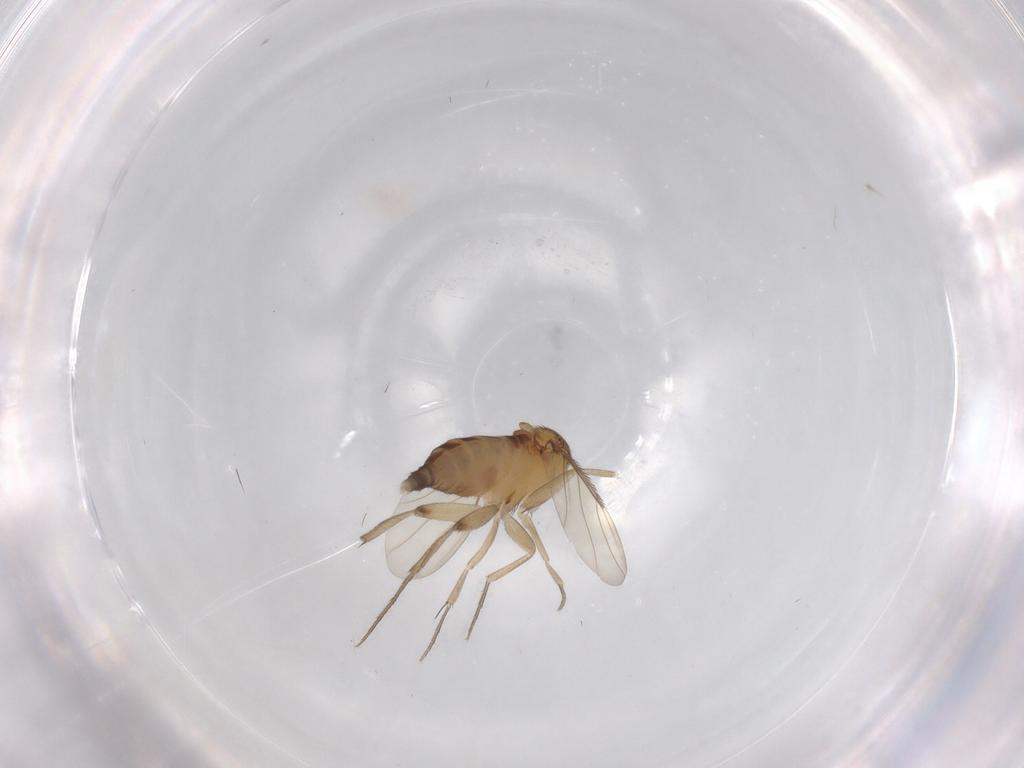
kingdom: Animalia
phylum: Arthropoda
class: Insecta
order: Diptera
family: Phoridae
